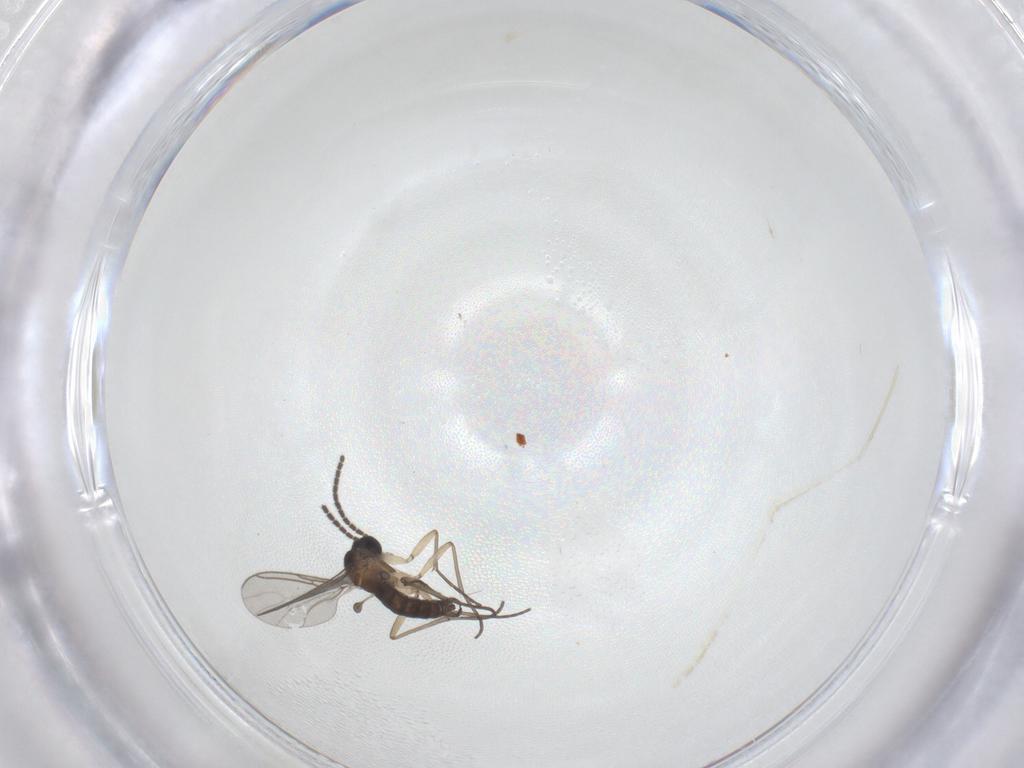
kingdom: Animalia
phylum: Arthropoda
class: Insecta
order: Diptera
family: Sciaridae
